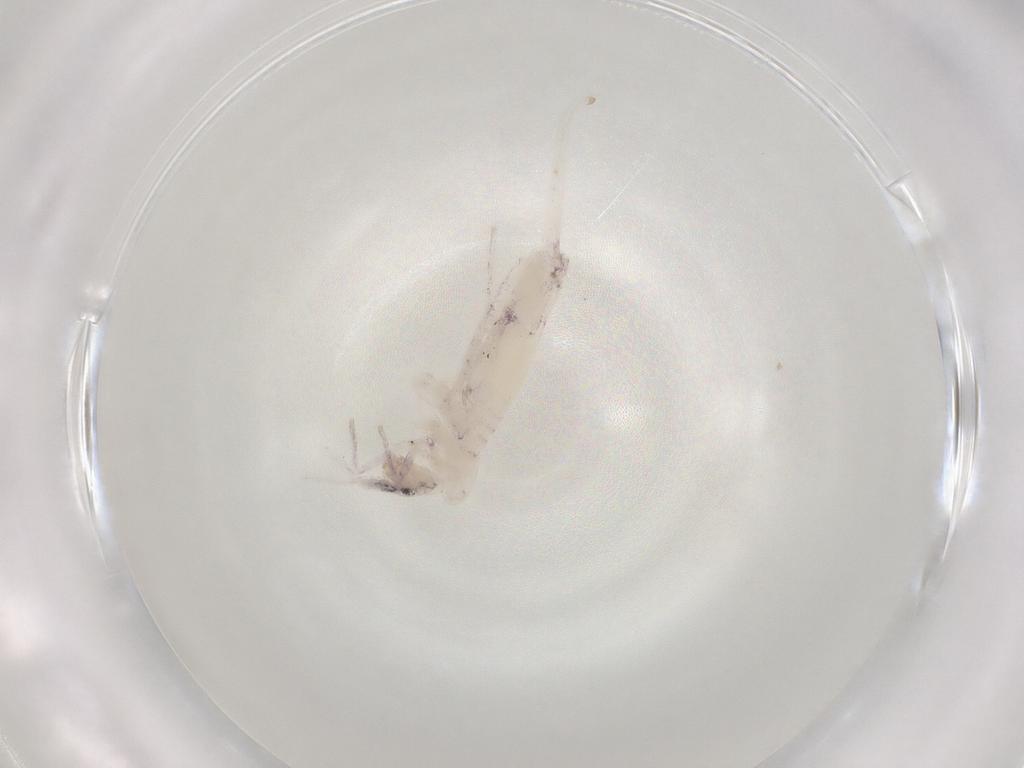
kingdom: Animalia
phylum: Arthropoda
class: Collembola
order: Entomobryomorpha
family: Entomobryidae
